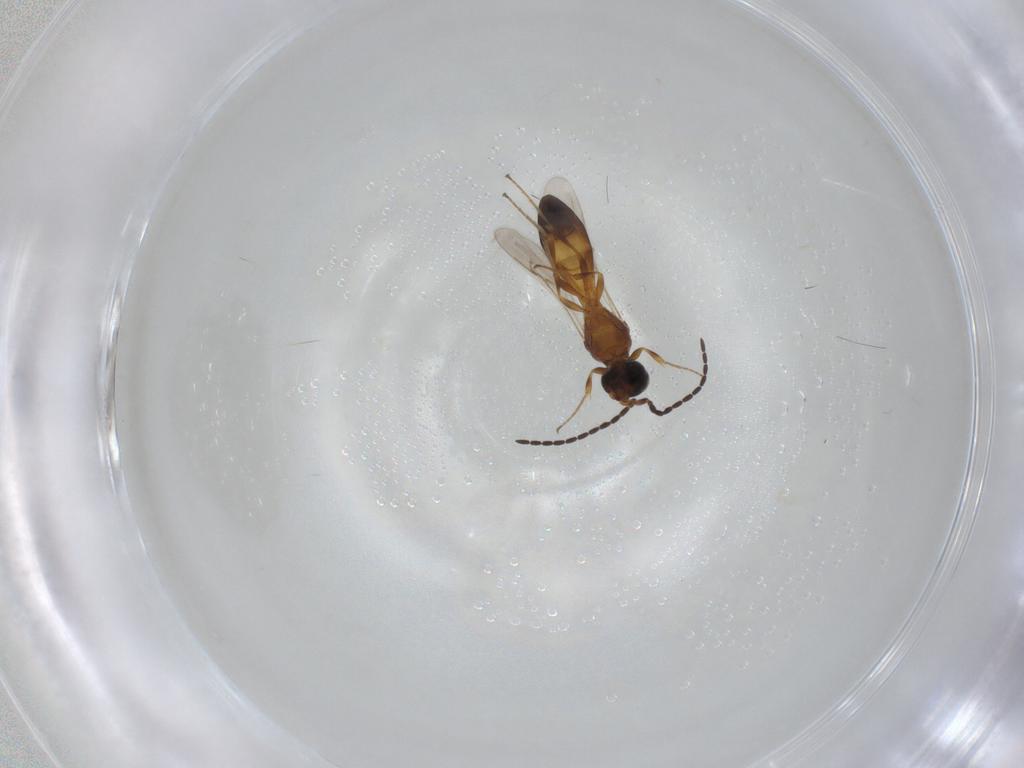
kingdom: Animalia
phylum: Arthropoda
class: Insecta
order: Hymenoptera
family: Scelionidae
